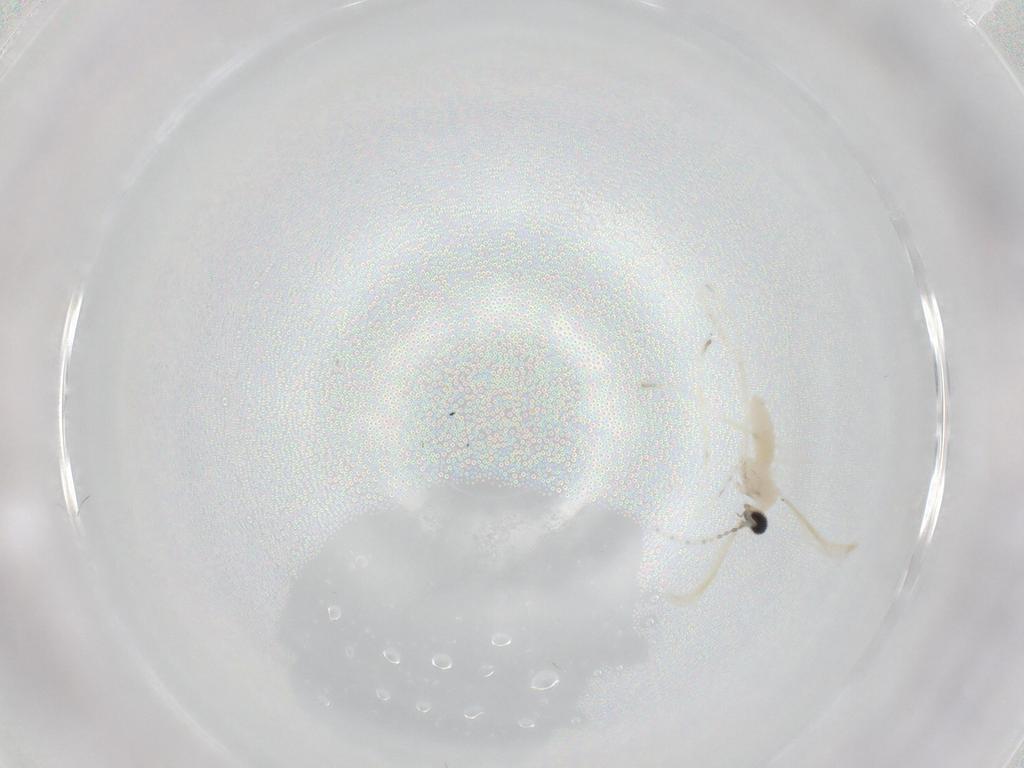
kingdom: Animalia
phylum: Arthropoda
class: Insecta
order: Diptera
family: Cecidomyiidae
